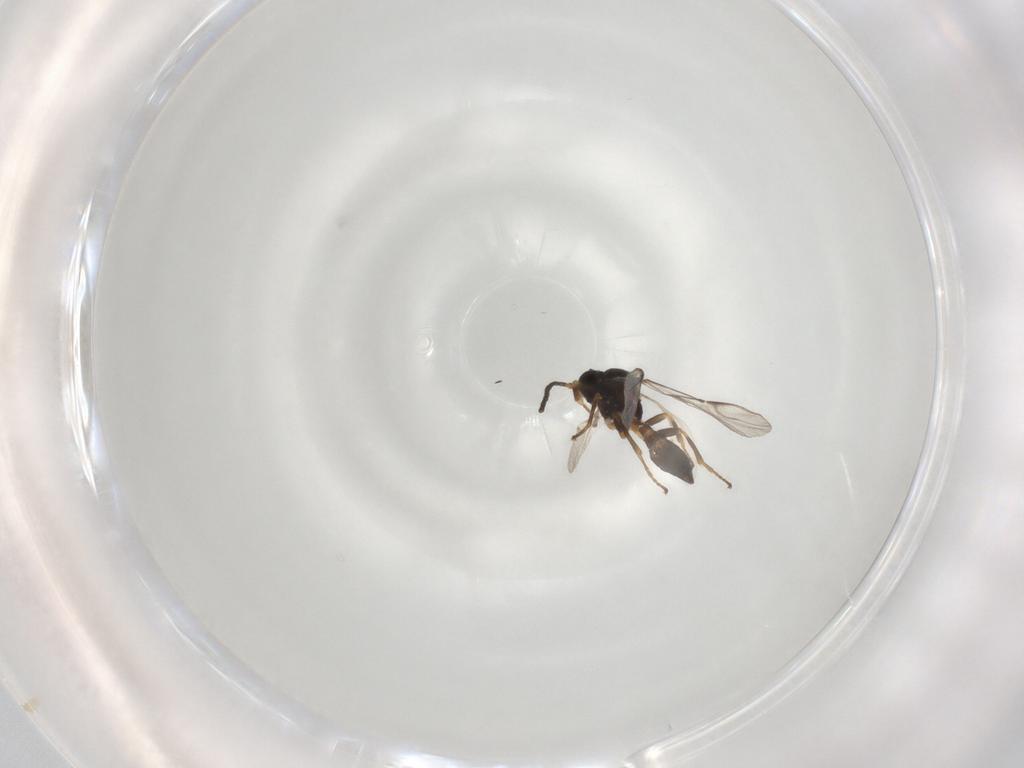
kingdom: Animalia
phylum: Arthropoda
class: Insecta
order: Hymenoptera
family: Braconidae
